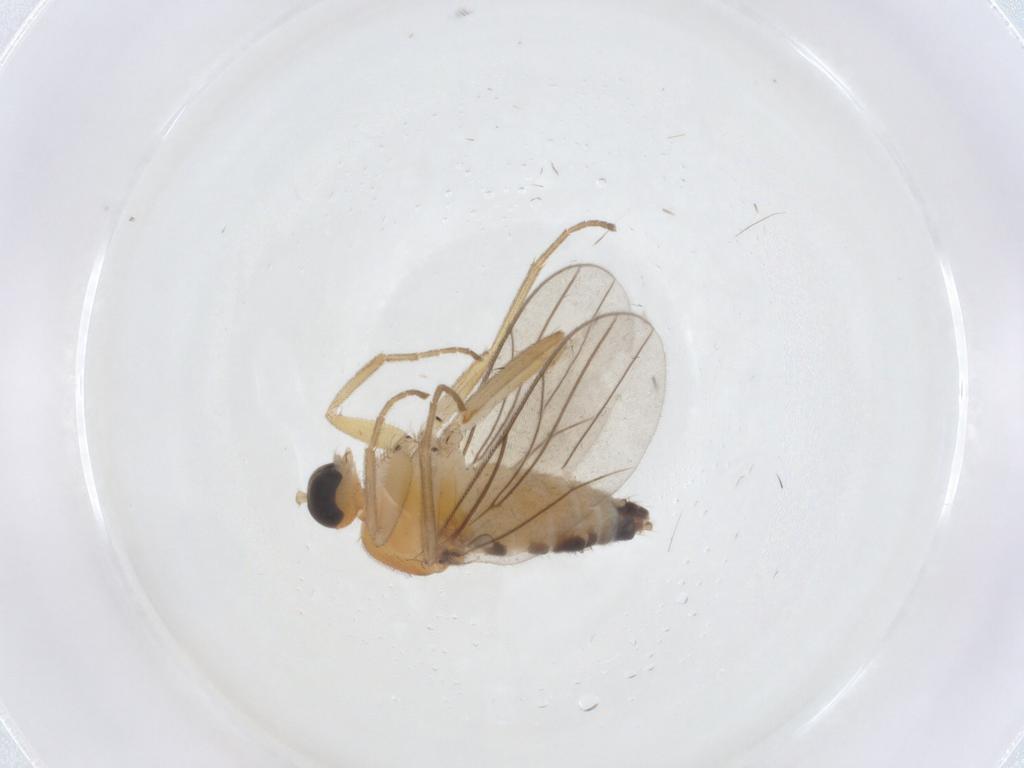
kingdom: Animalia
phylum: Arthropoda
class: Insecta
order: Diptera
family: Hybotidae
